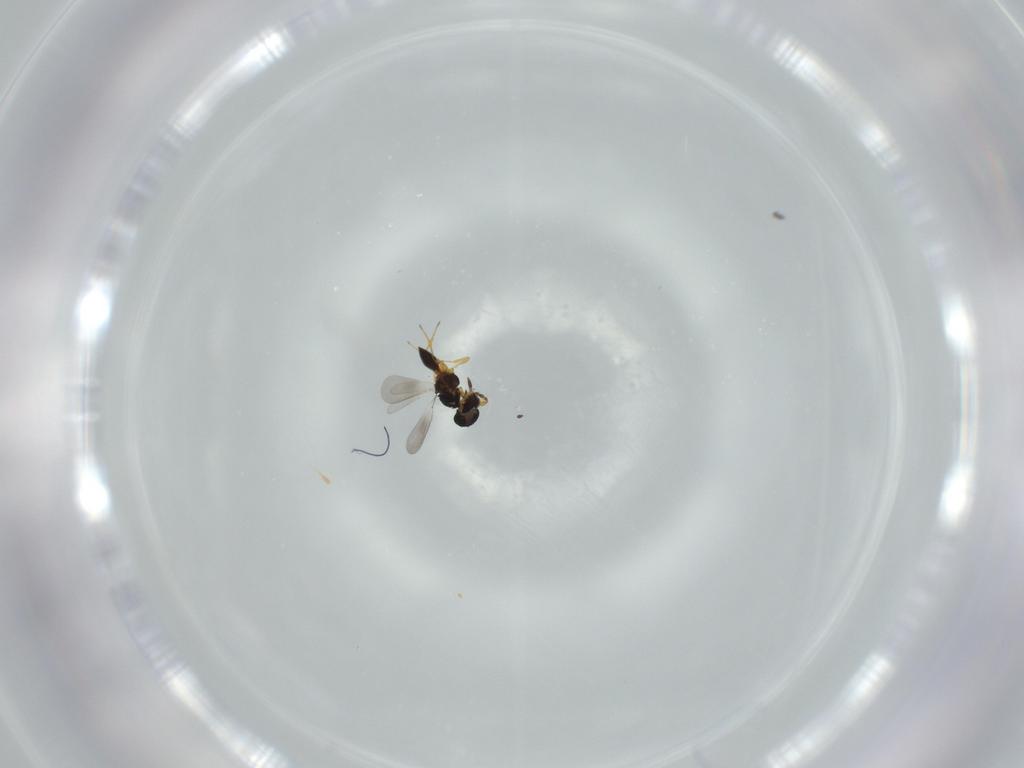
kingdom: Animalia
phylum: Arthropoda
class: Insecta
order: Hymenoptera
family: Platygastridae
